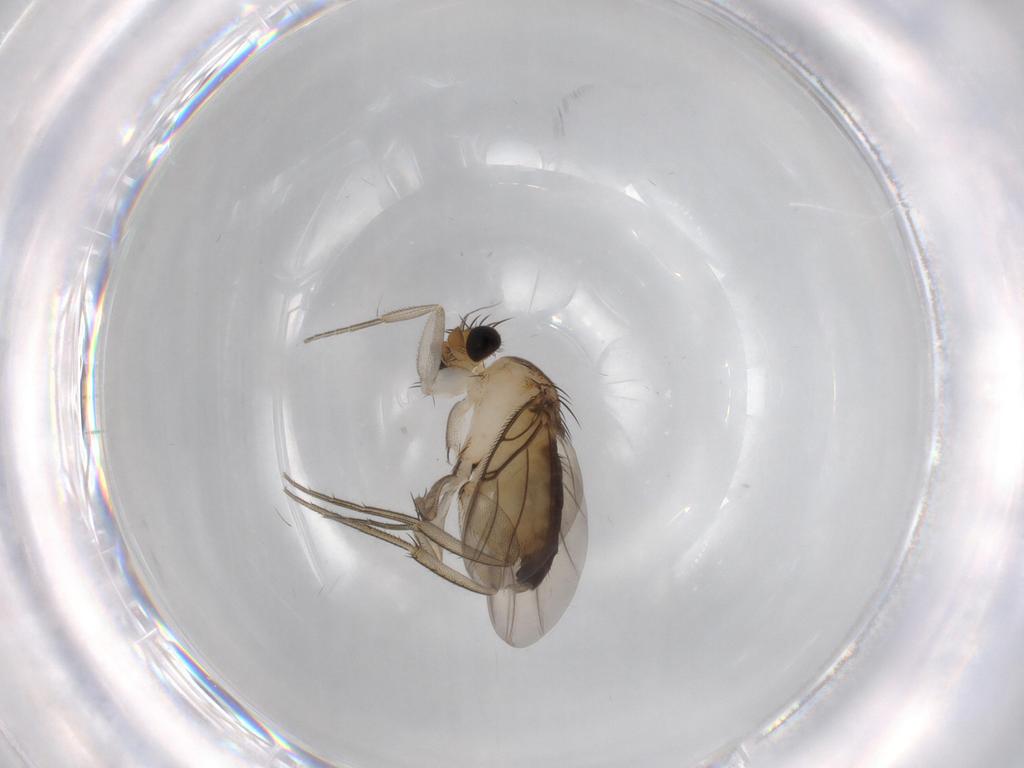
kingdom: Animalia
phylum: Arthropoda
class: Insecta
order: Diptera
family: Phoridae
